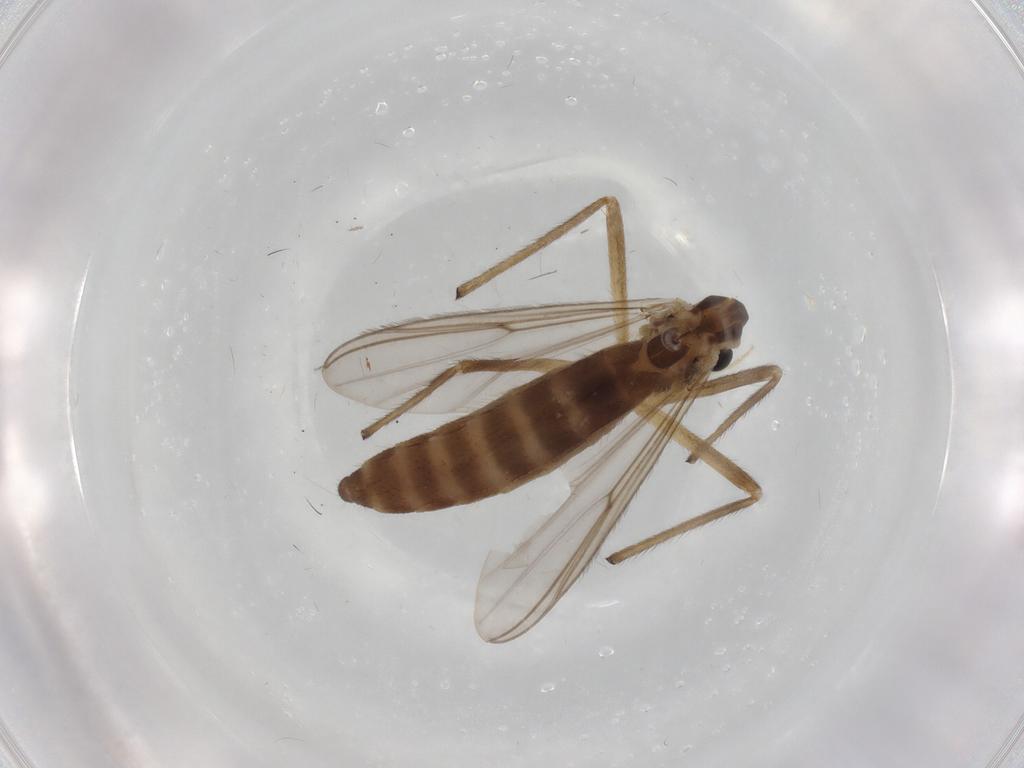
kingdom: Animalia
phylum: Arthropoda
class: Insecta
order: Diptera
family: Chironomidae
